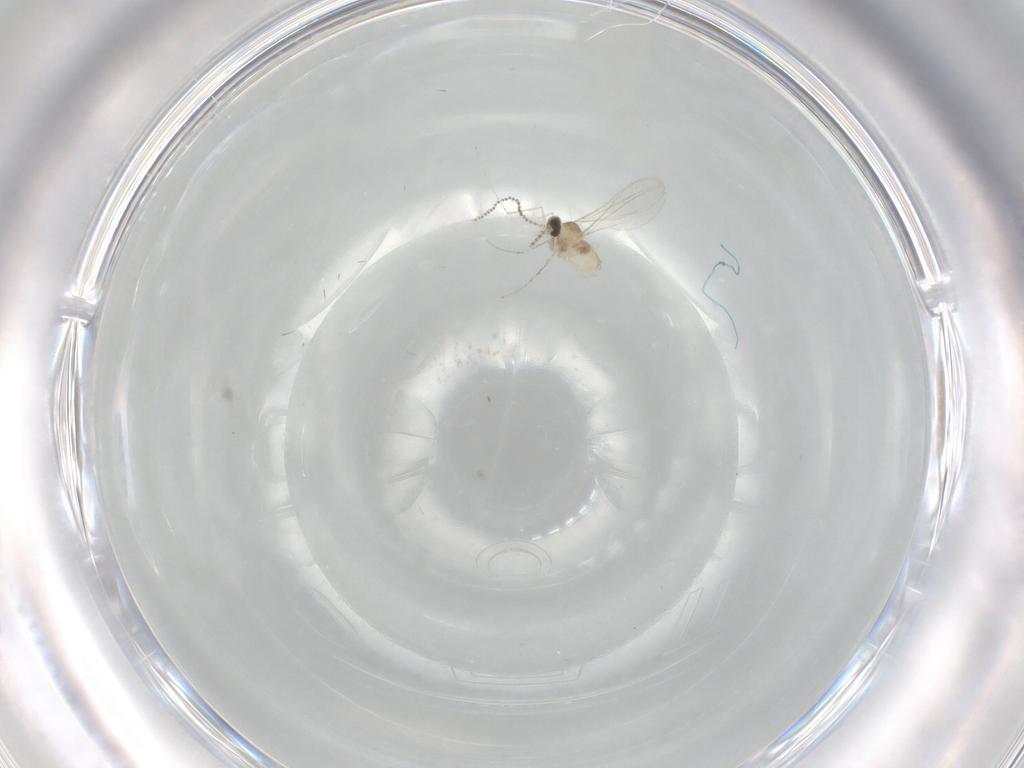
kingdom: Animalia
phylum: Arthropoda
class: Insecta
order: Diptera
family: Cecidomyiidae
